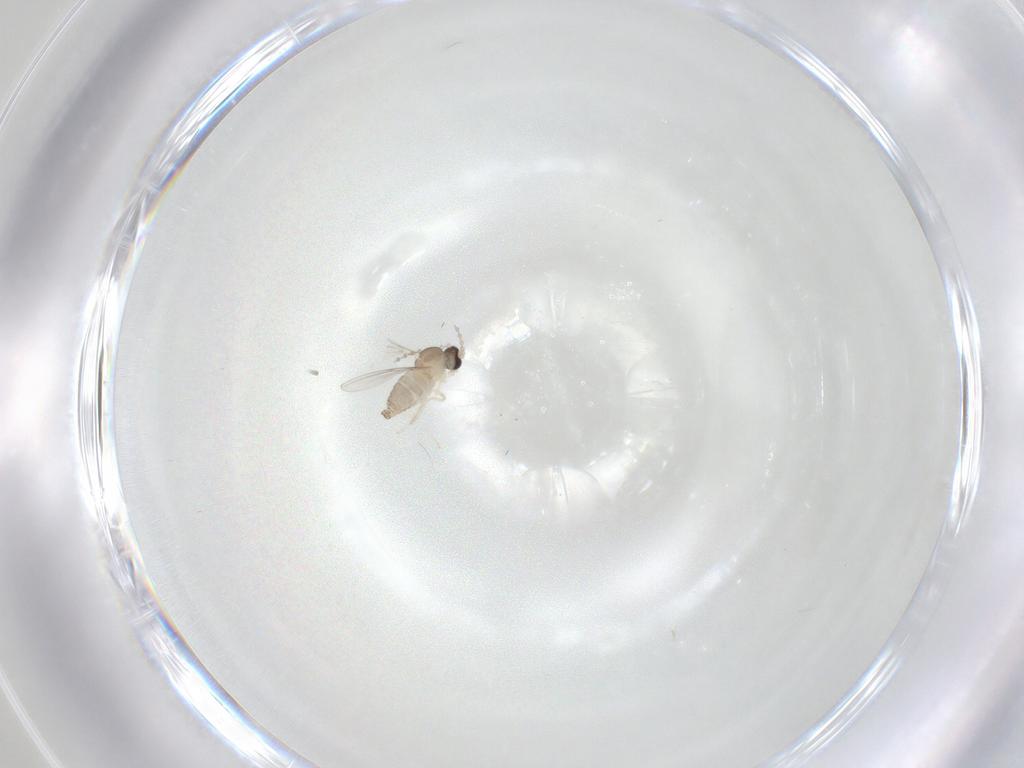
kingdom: Animalia
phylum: Arthropoda
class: Insecta
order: Diptera
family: Cecidomyiidae
